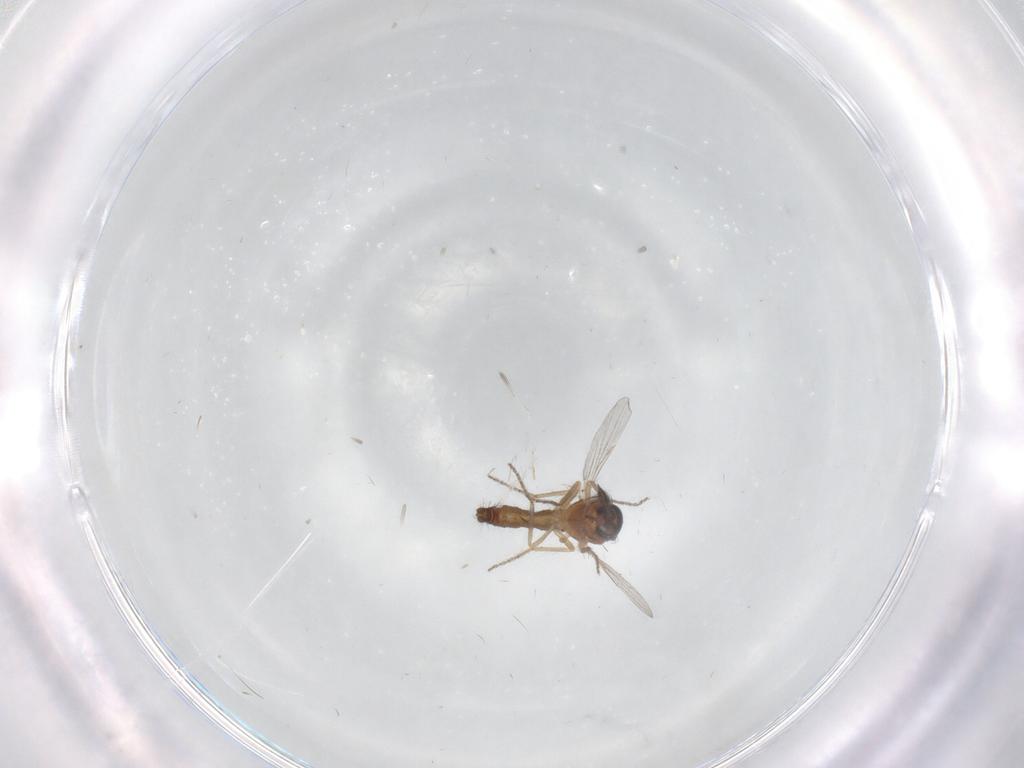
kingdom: Animalia
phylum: Arthropoda
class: Insecta
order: Diptera
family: Ceratopogonidae
